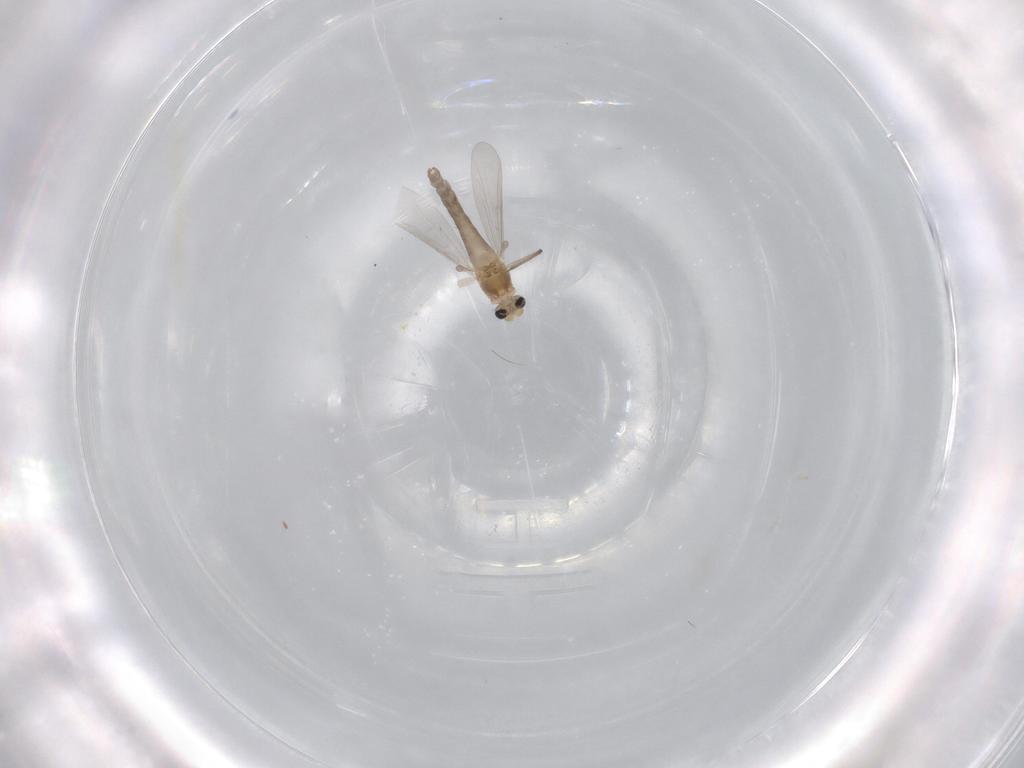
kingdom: Animalia
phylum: Arthropoda
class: Insecta
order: Diptera
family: Chironomidae
